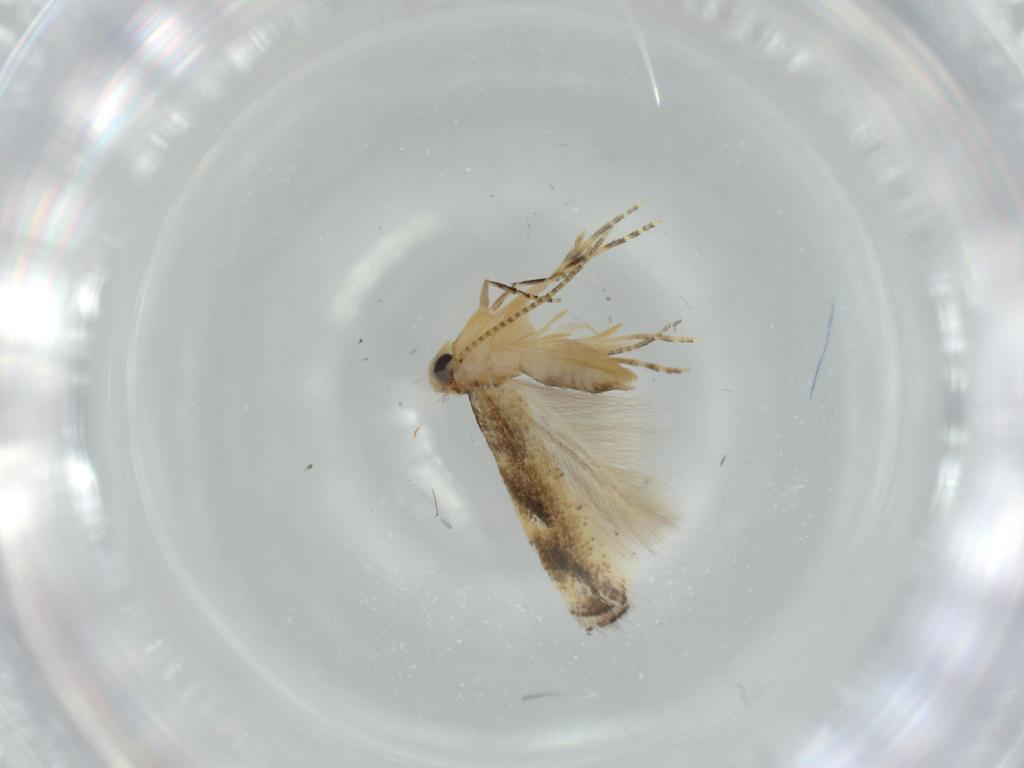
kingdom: Animalia
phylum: Arthropoda
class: Insecta
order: Lepidoptera
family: Bucculatricidae
